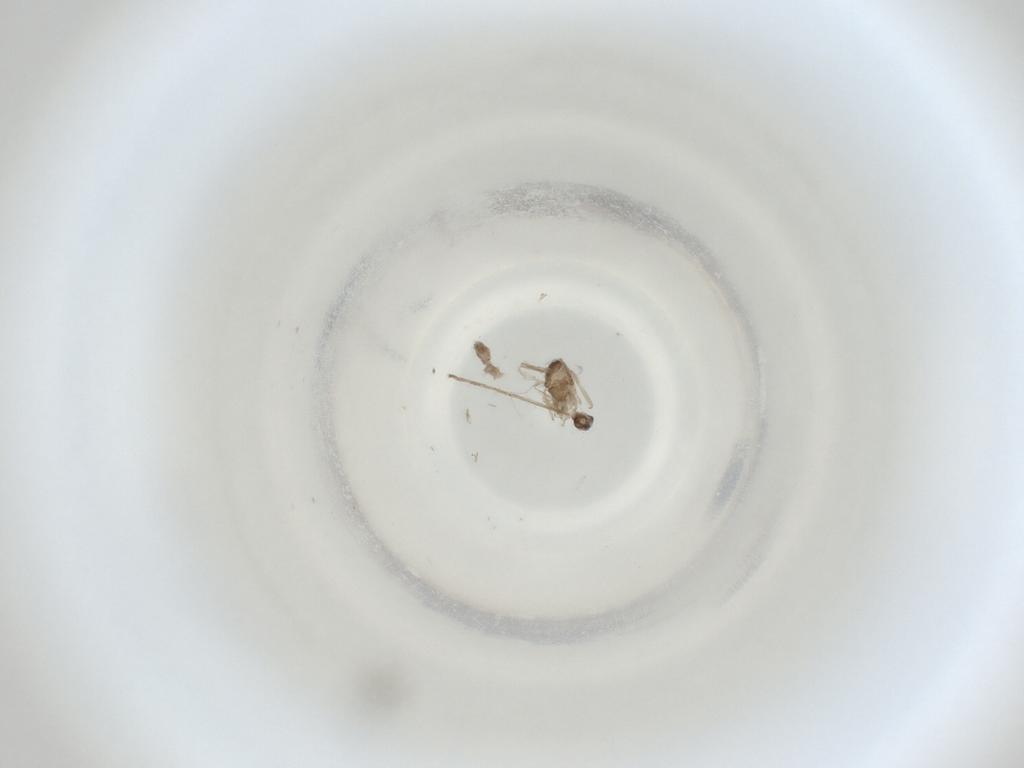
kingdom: Animalia
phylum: Arthropoda
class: Insecta
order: Diptera
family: Cecidomyiidae
